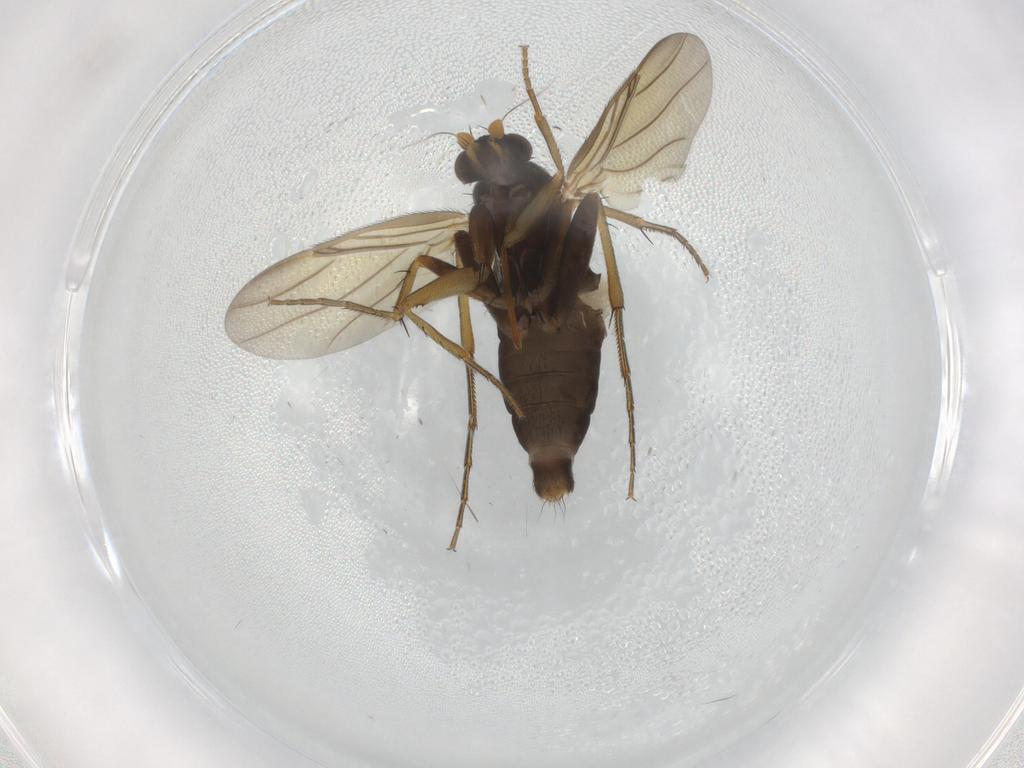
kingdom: Animalia
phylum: Arthropoda
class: Insecta
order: Diptera
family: Phoridae
